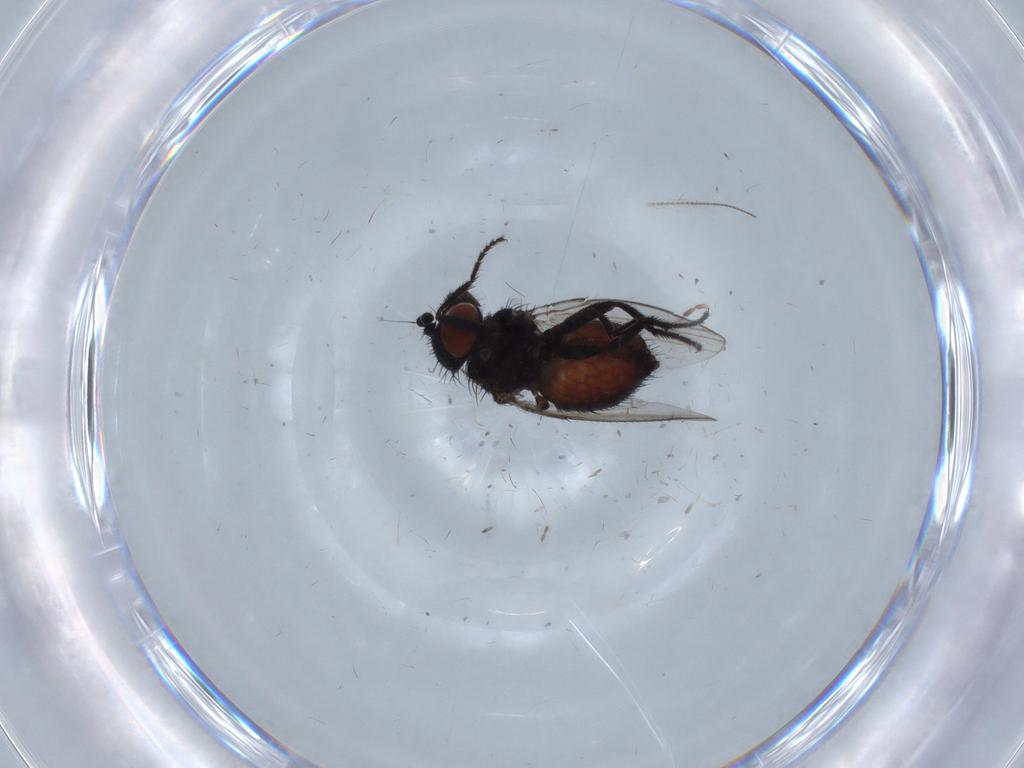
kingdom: Animalia
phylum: Arthropoda
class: Insecta
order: Diptera
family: Cecidomyiidae
